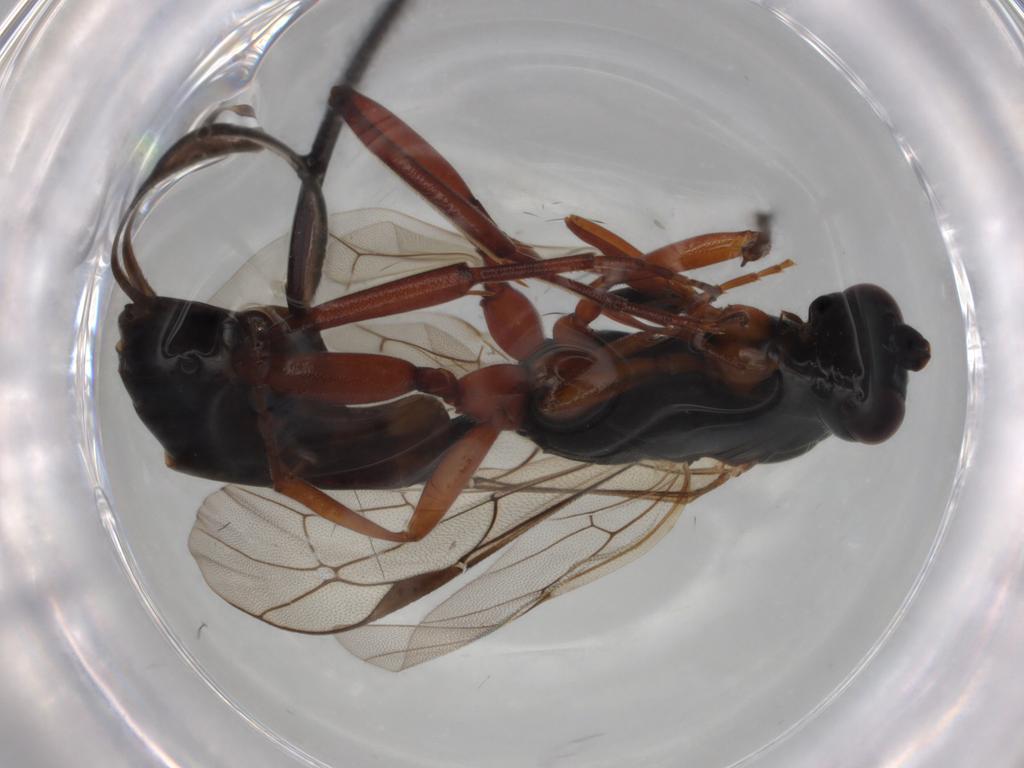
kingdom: Animalia
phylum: Arthropoda
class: Insecta
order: Hymenoptera
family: Ichneumonidae
